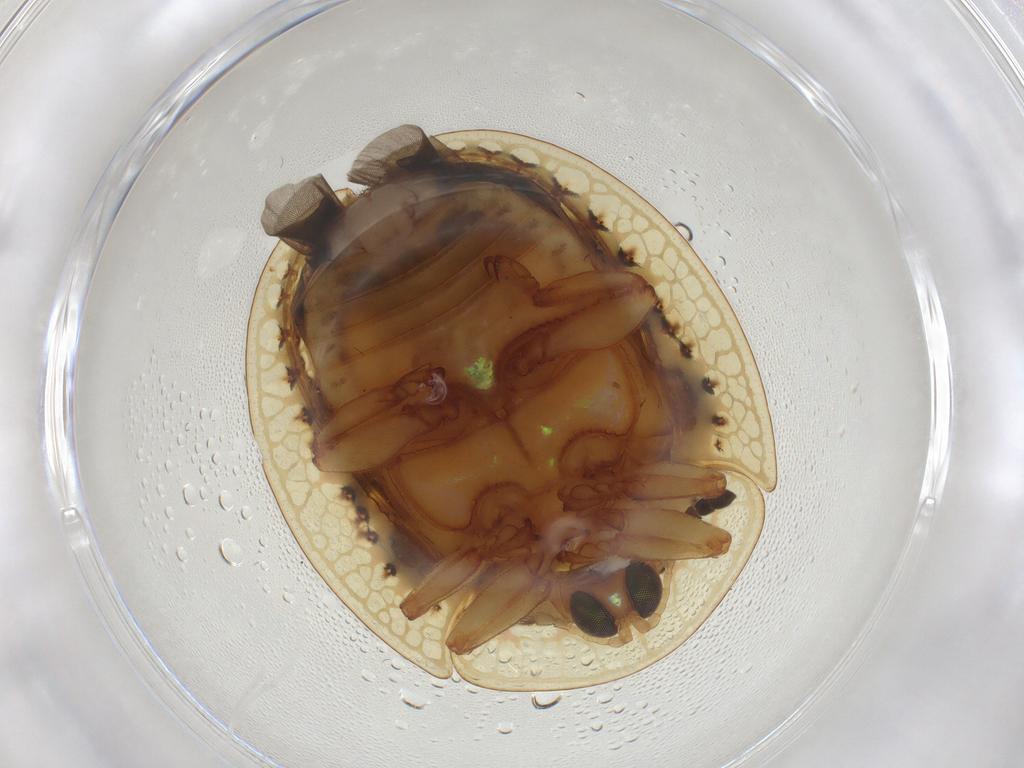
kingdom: Animalia
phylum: Arthropoda
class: Insecta
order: Coleoptera
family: Chrysomelidae
